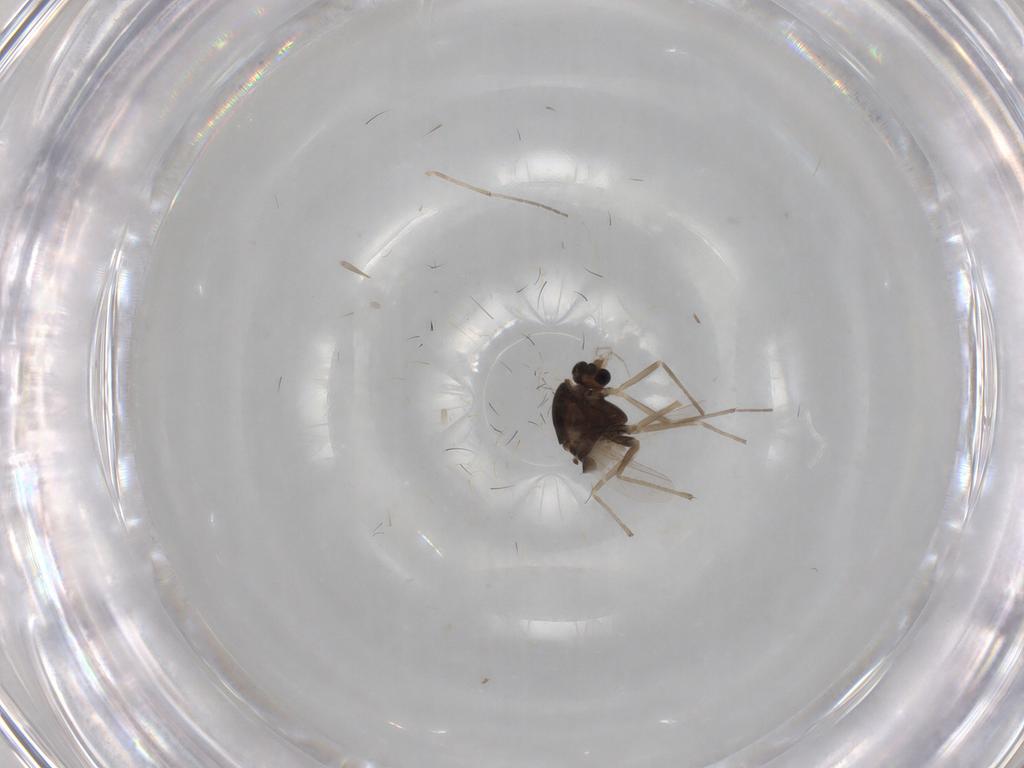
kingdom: Animalia
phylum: Arthropoda
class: Insecta
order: Diptera
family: Chironomidae
